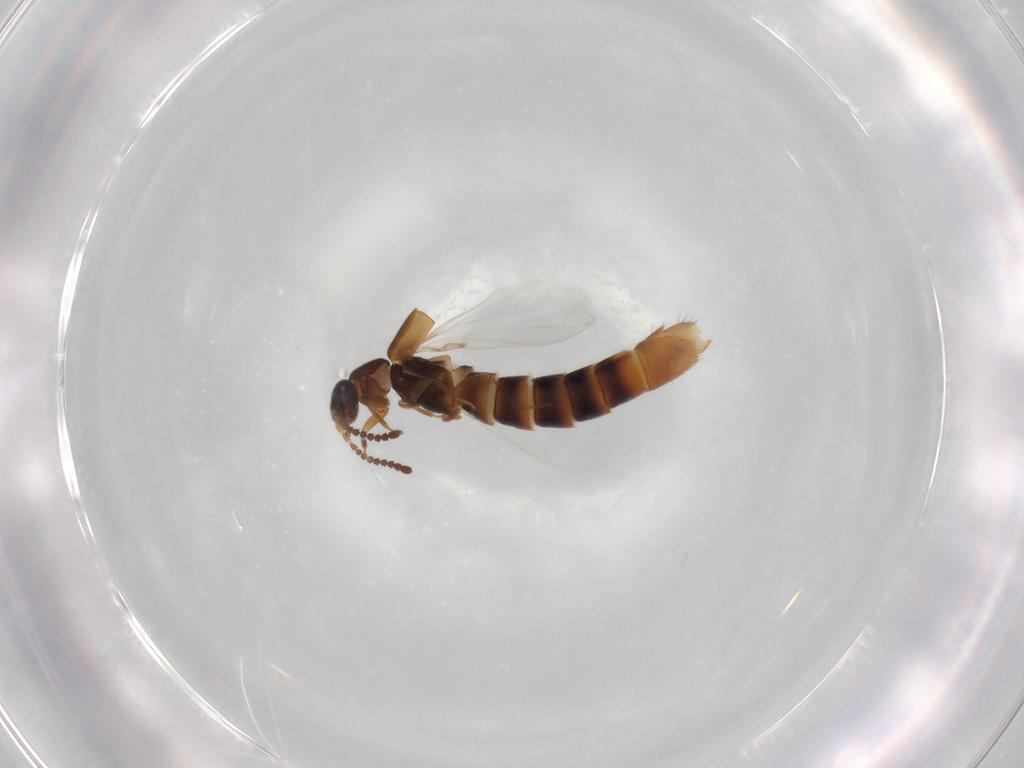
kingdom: Animalia
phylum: Arthropoda
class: Insecta
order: Coleoptera
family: Staphylinidae
